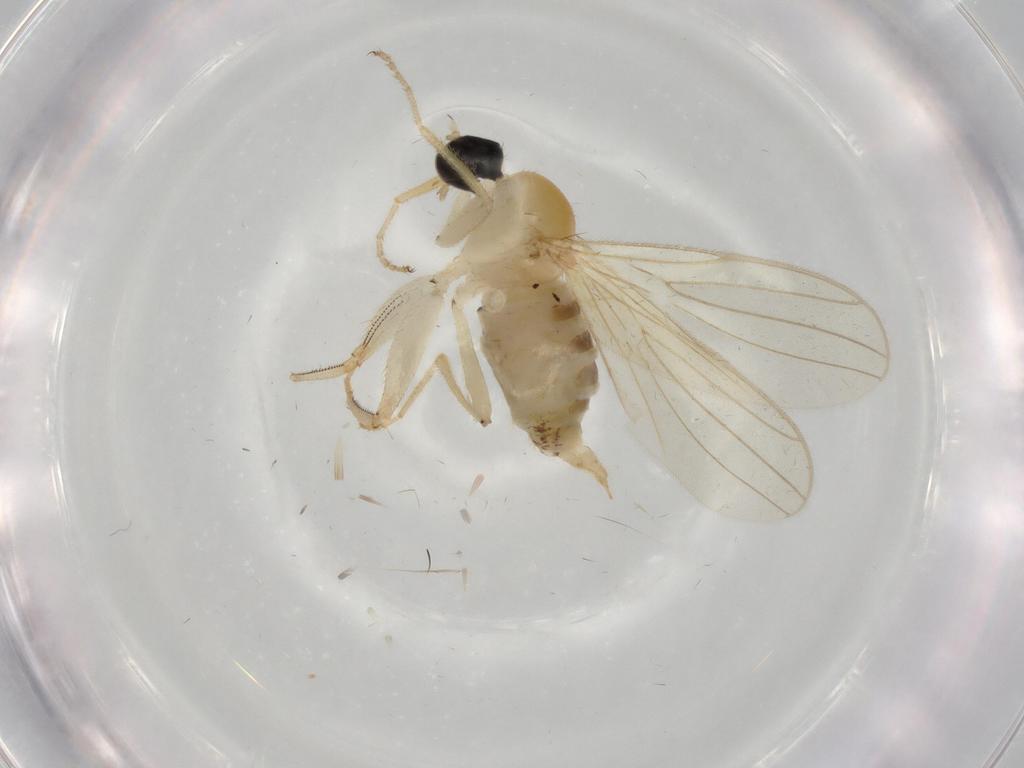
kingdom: Animalia
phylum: Arthropoda
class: Insecta
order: Diptera
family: Hybotidae
